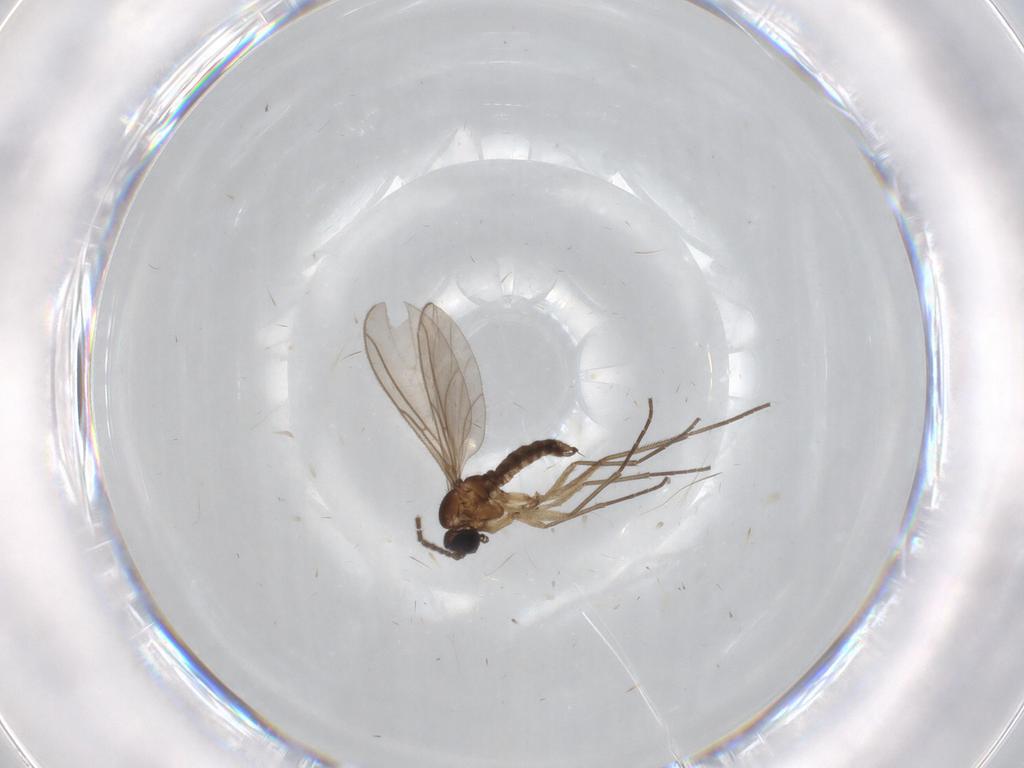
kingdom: Animalia
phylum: Arthropoda
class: Insecta
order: Diptera
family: Sciaridae
